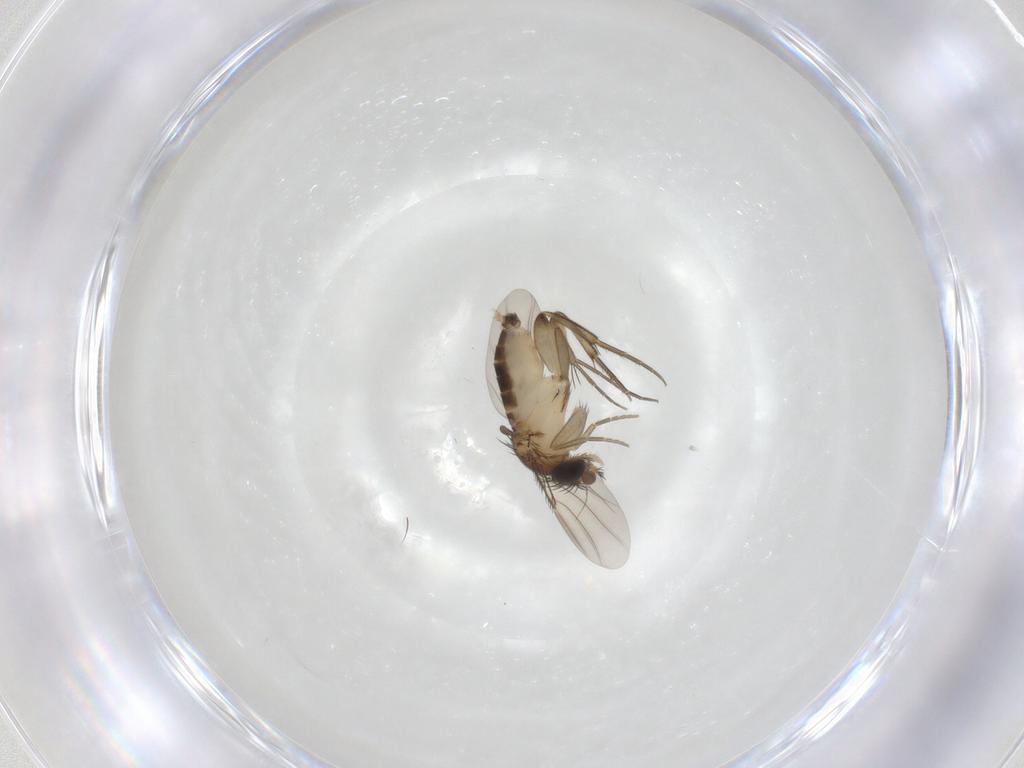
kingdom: Animalia
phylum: Arthropoda
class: Insecta
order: Diptera
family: Phoridae
